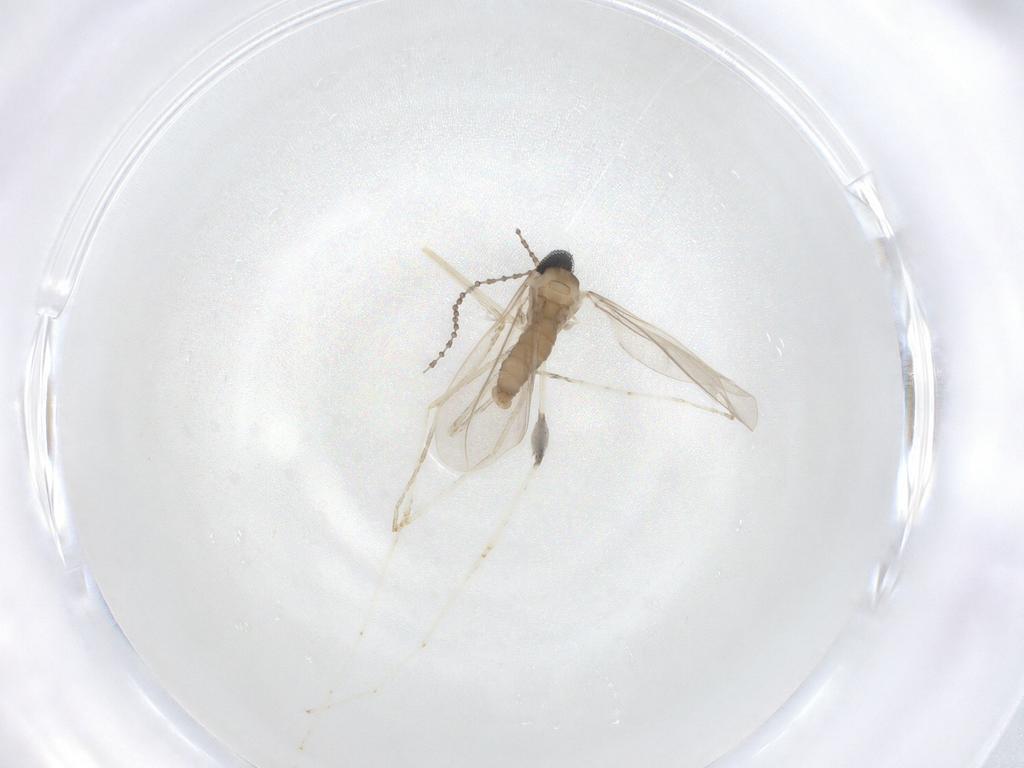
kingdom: Animalia
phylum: Arthropoda
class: Insecta
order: Diptera
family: Cecidomyiidae
